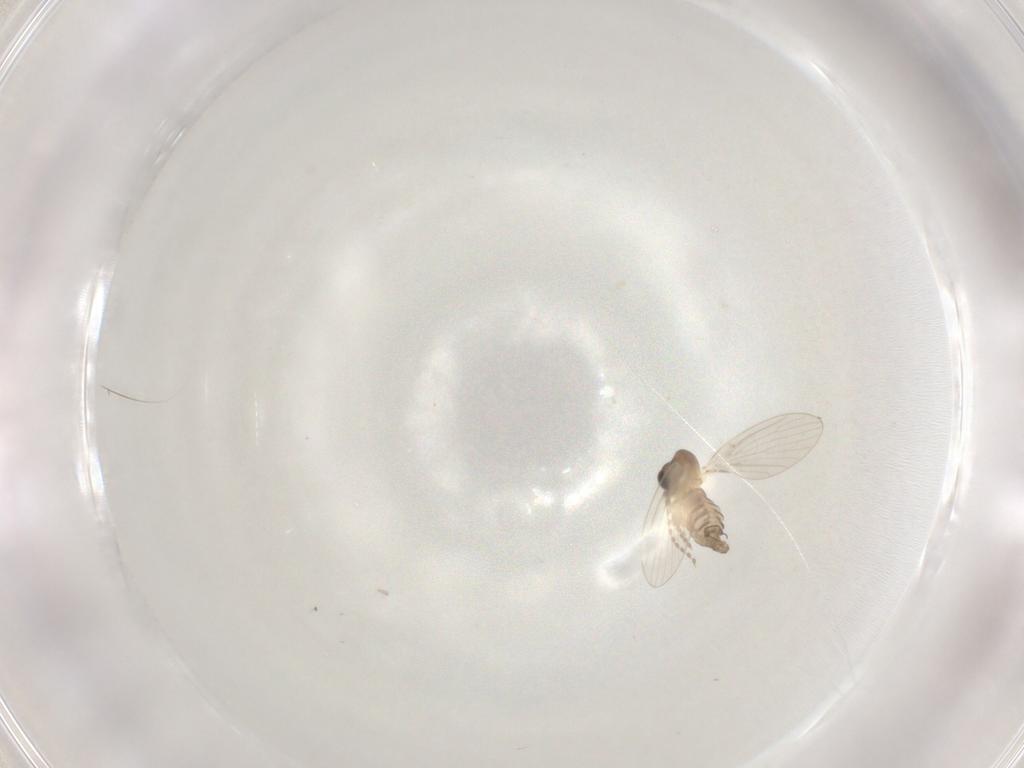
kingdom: Animalia
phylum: Arthropoda
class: Insecta
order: Diptera
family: Psychodidae
